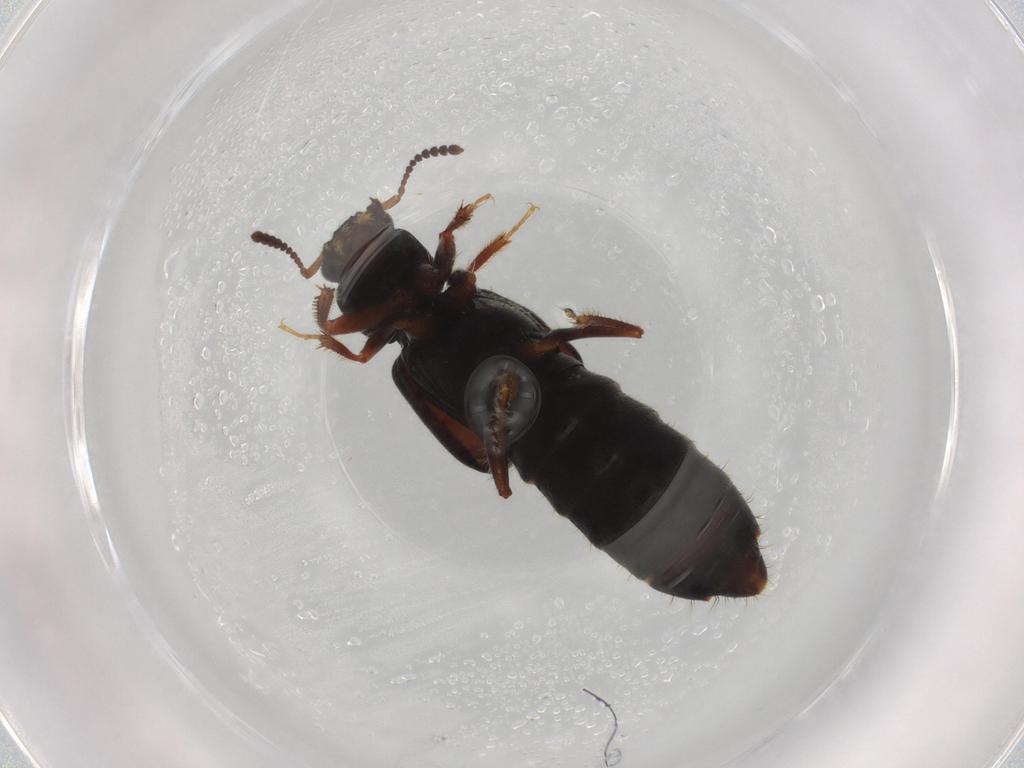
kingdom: Animalia
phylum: Arthropoda
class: Insecta
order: Coleoptera
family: Staphylinidae
